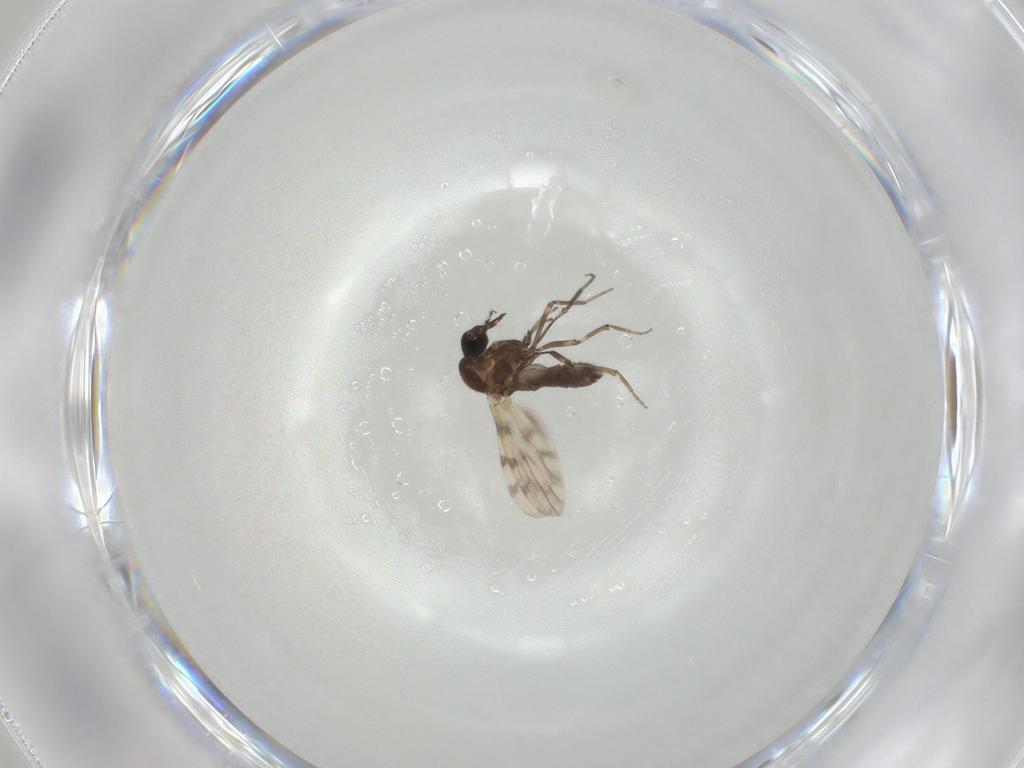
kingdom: Animalia
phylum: Arthropoda
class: Insecta
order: Diptera
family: Ceratopogonidae
